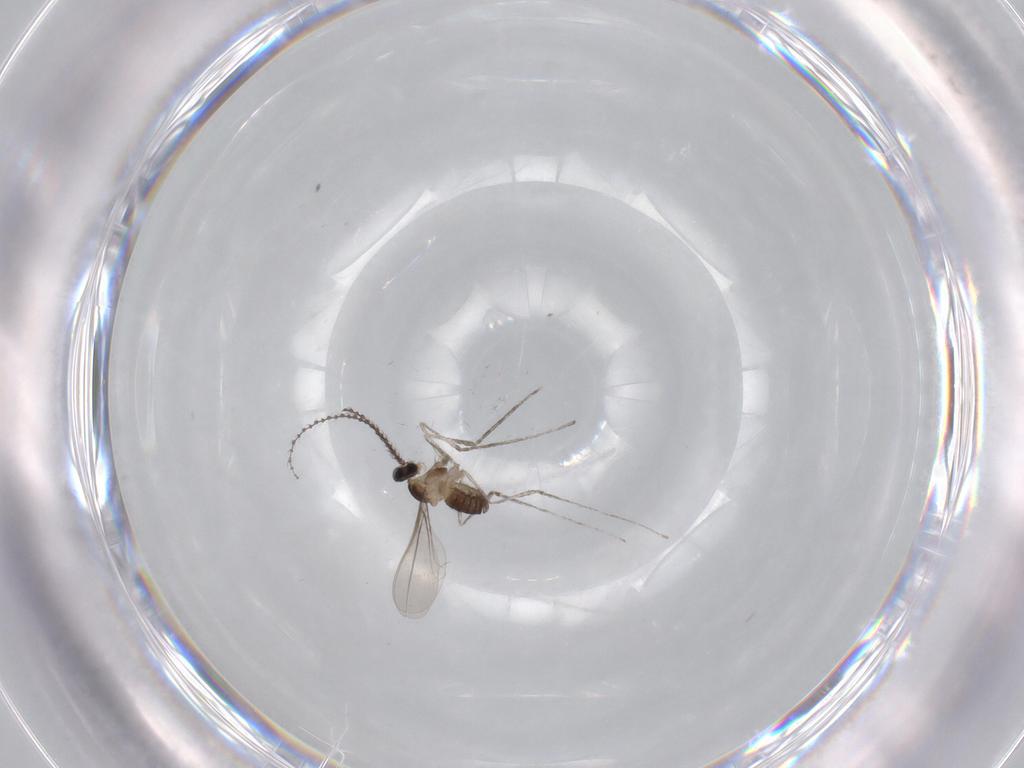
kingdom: Animalia
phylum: Arthropoda
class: Insecta
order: Diptera
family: Cecidomyiidae
